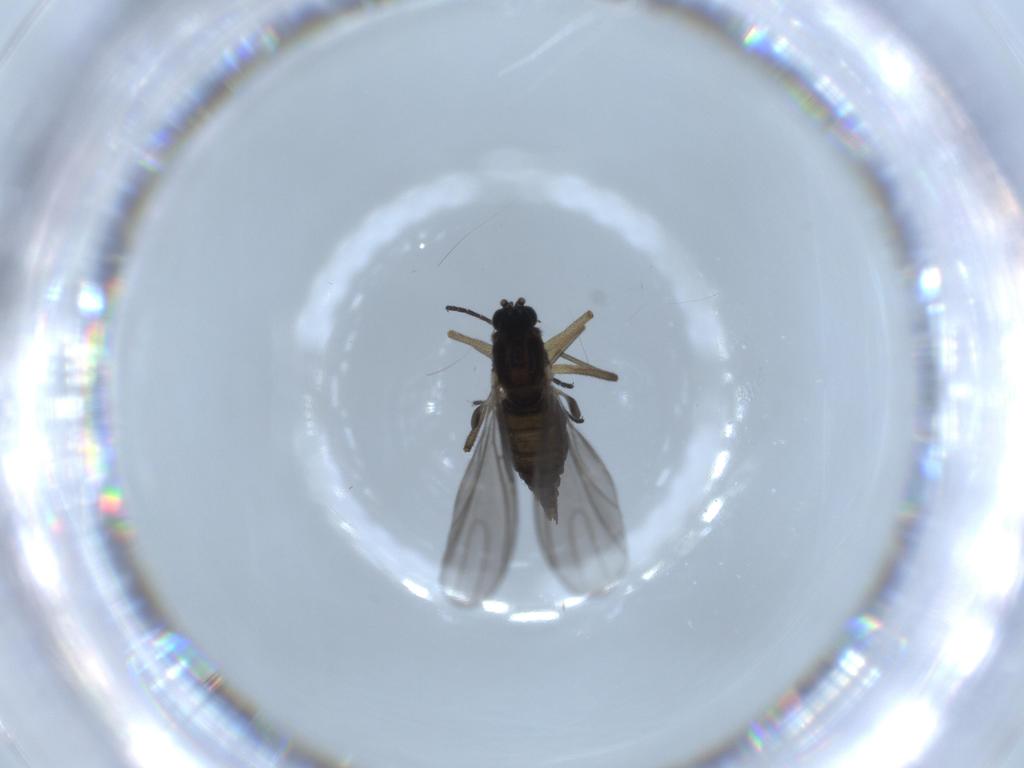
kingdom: Animalia
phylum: Arthropoda
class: Insecta
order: Diptera
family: Sciaridae
